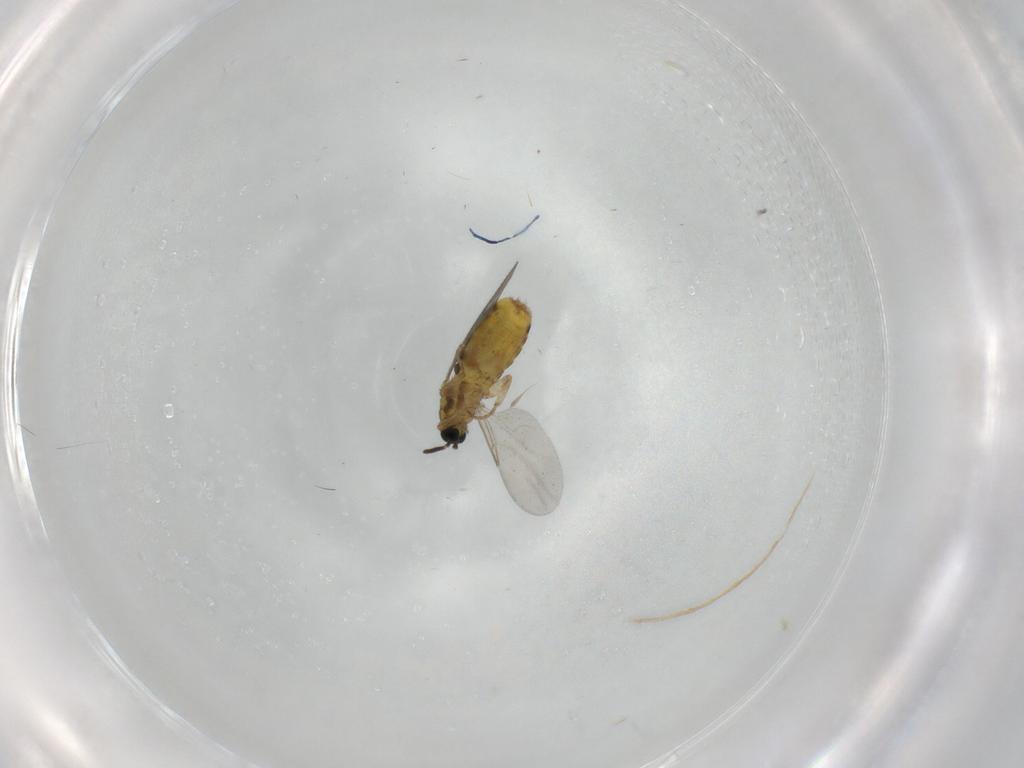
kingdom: Animalia
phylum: Arthropoda
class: Insecta
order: Diptera
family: Scatopsidae
